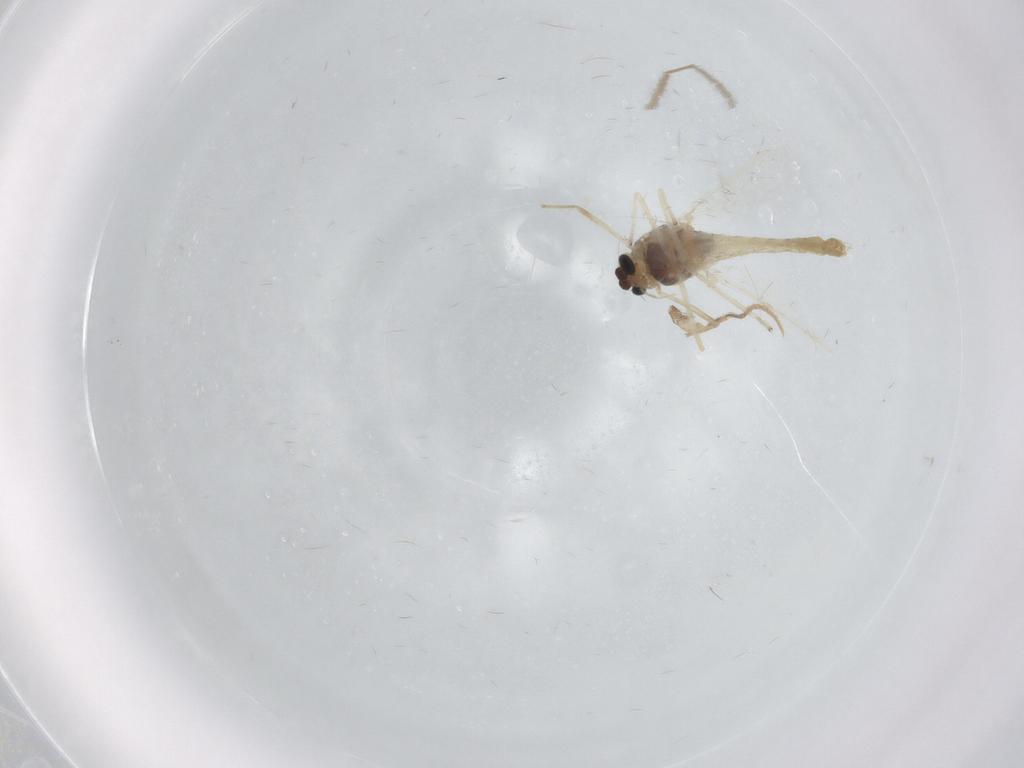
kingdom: Animalia
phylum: Arthropoda
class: Insecta
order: Diptera
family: Chironomidae
